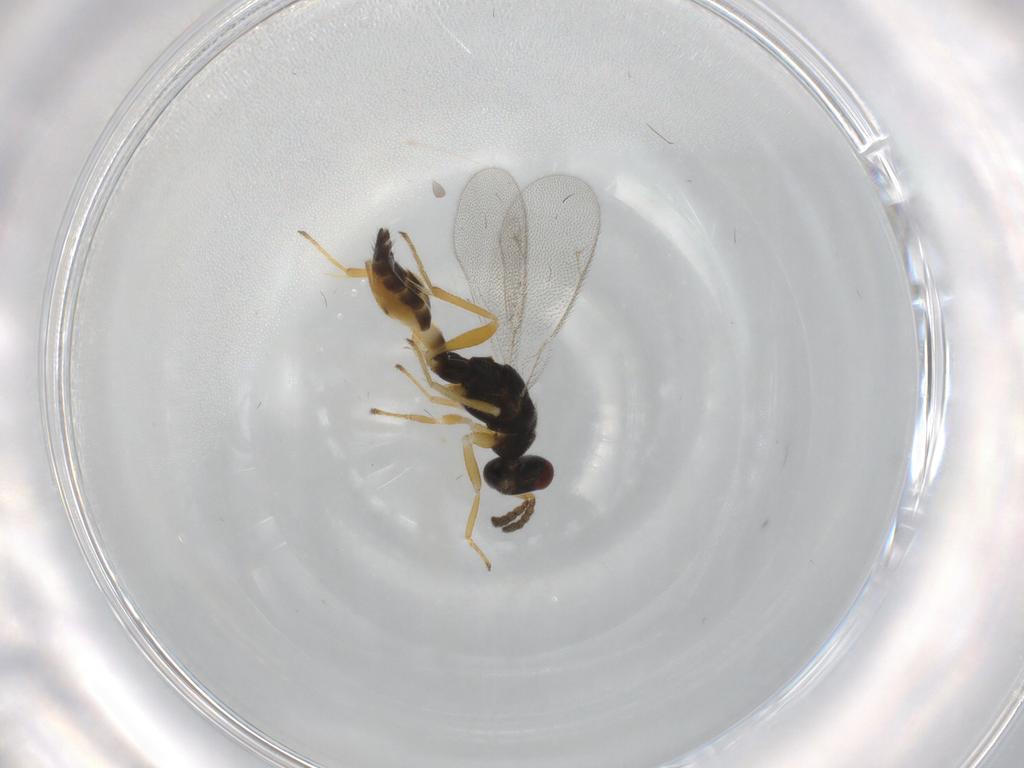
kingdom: Animalia
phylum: Arthropoda
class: Insecta
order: Hymenoptera
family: Eulophidae
